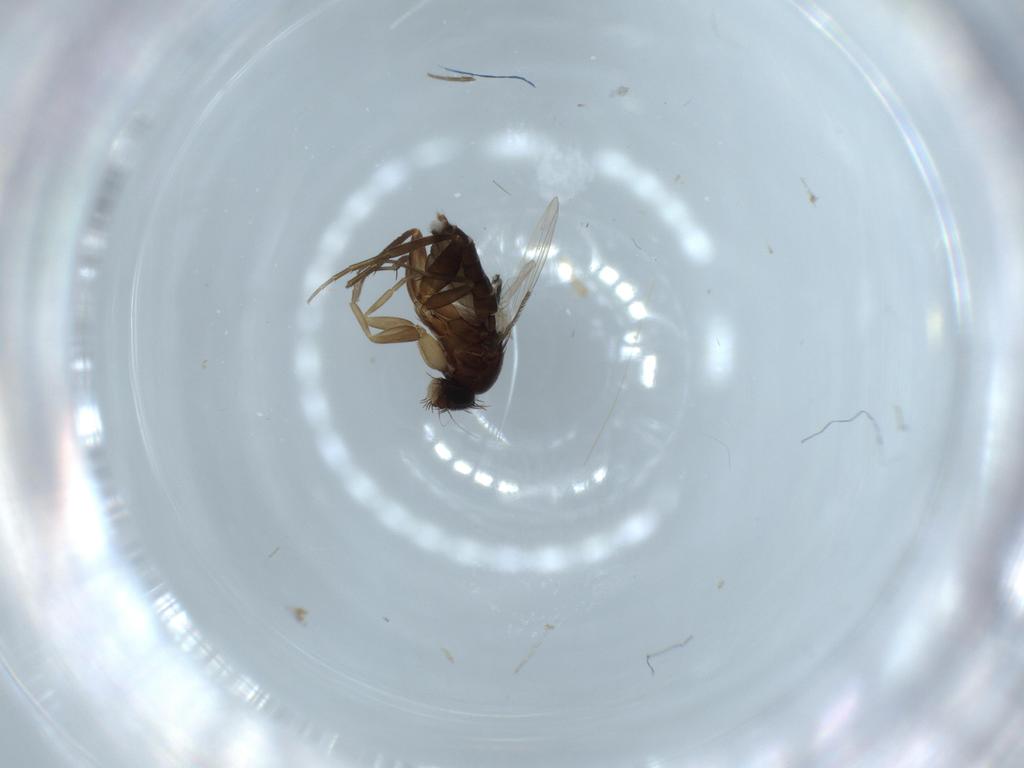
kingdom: Animalia
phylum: Arthropoda
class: Insecta
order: Diptera
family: Phoridae
